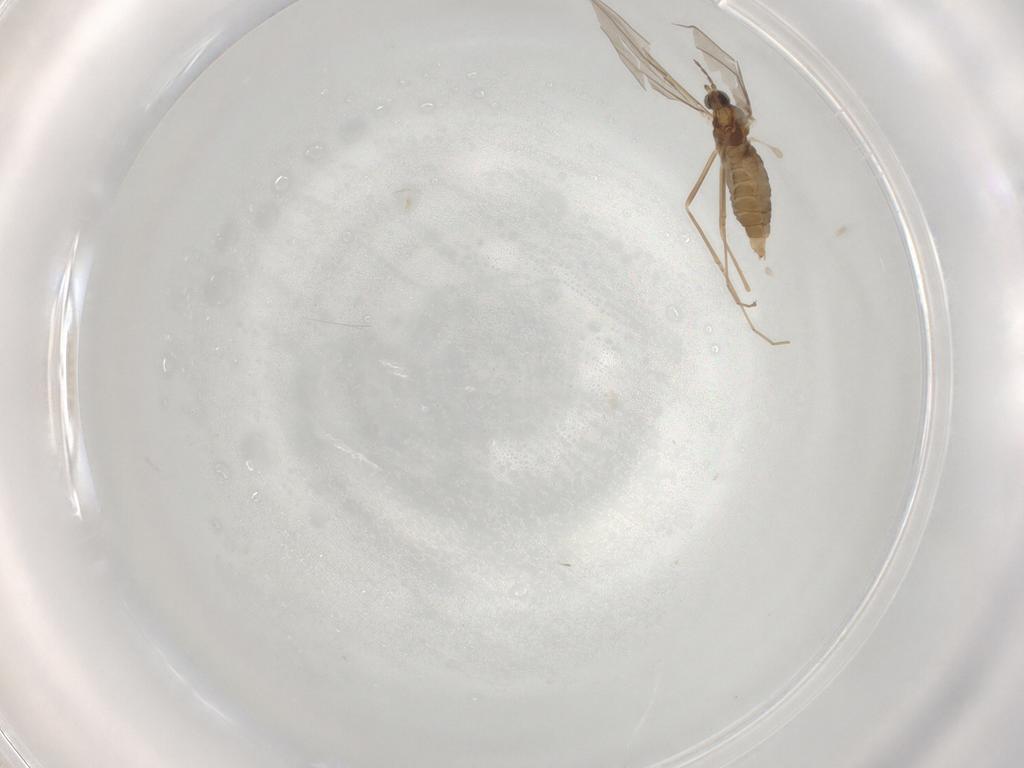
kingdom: Animalia
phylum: Arthropoda
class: Insecta
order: Diptera
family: Cecidomyiidae
